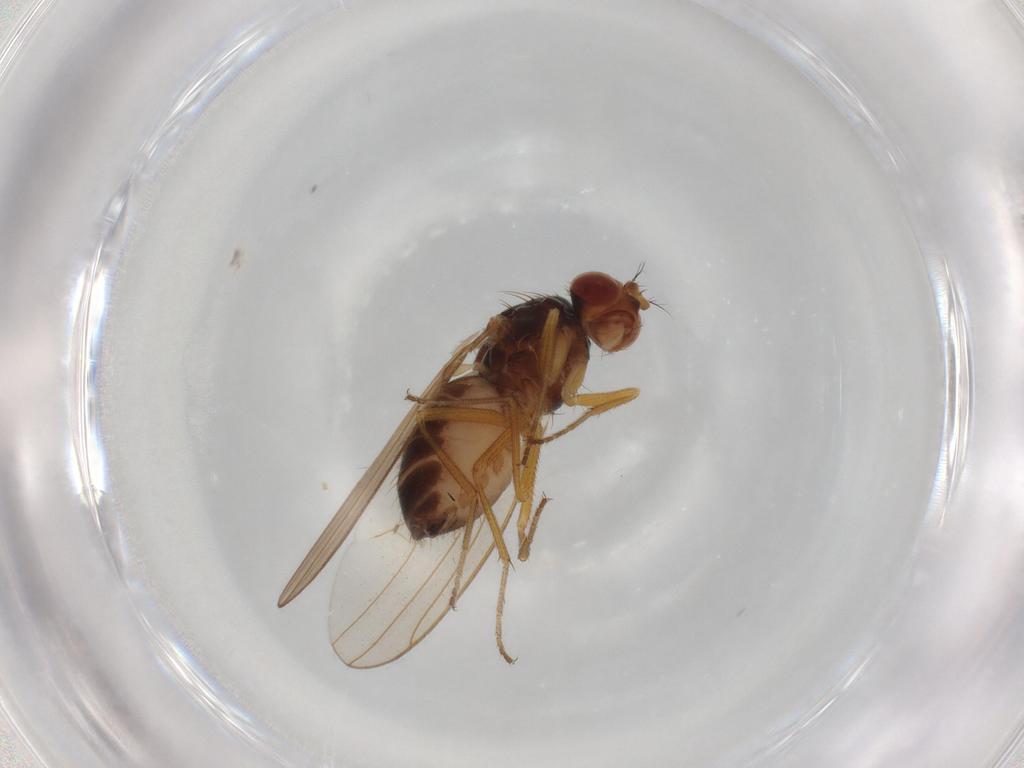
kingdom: Animalia
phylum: Arthropoda
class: Insecta
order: Diptera
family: Drosophilidae
